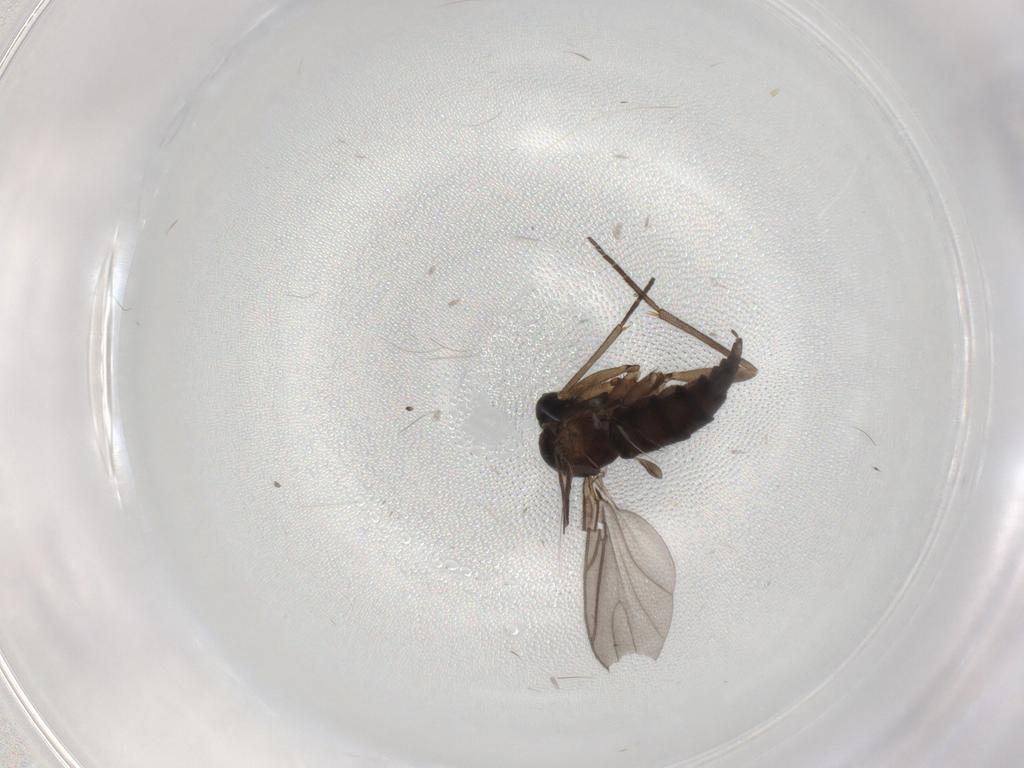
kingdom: Animalia
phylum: Arthropoda
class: Insecta
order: Diptera
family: Sciaridae
